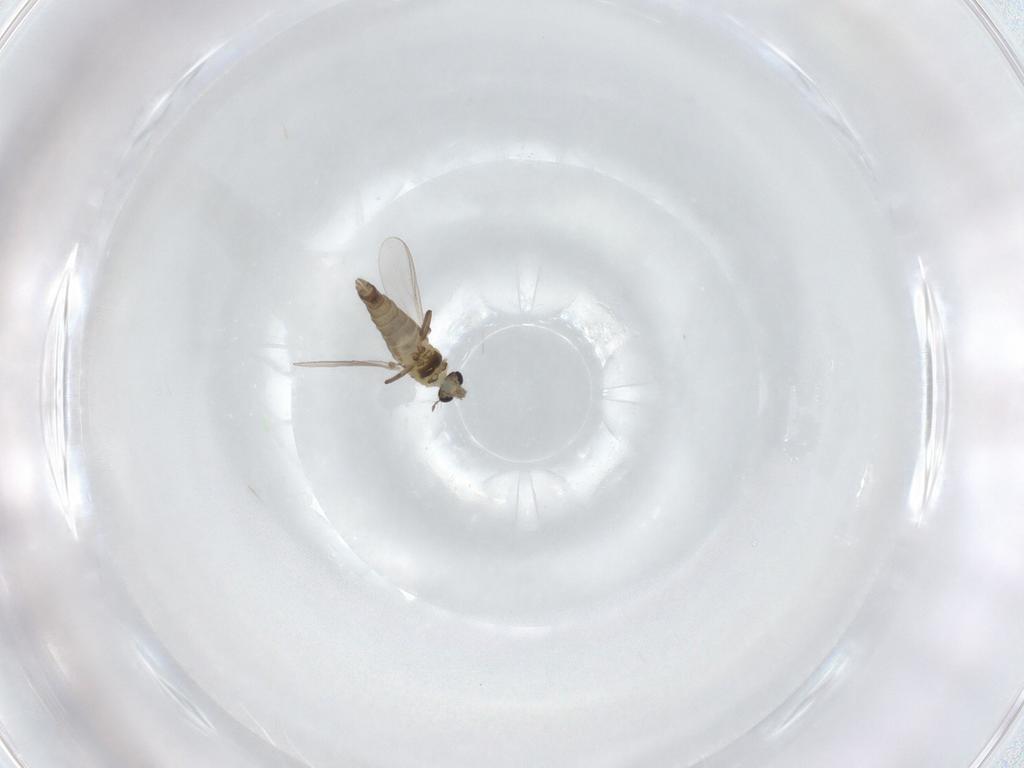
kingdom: Animalia
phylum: Arthropoda
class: Insecta
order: Diptera
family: Chironomidae
